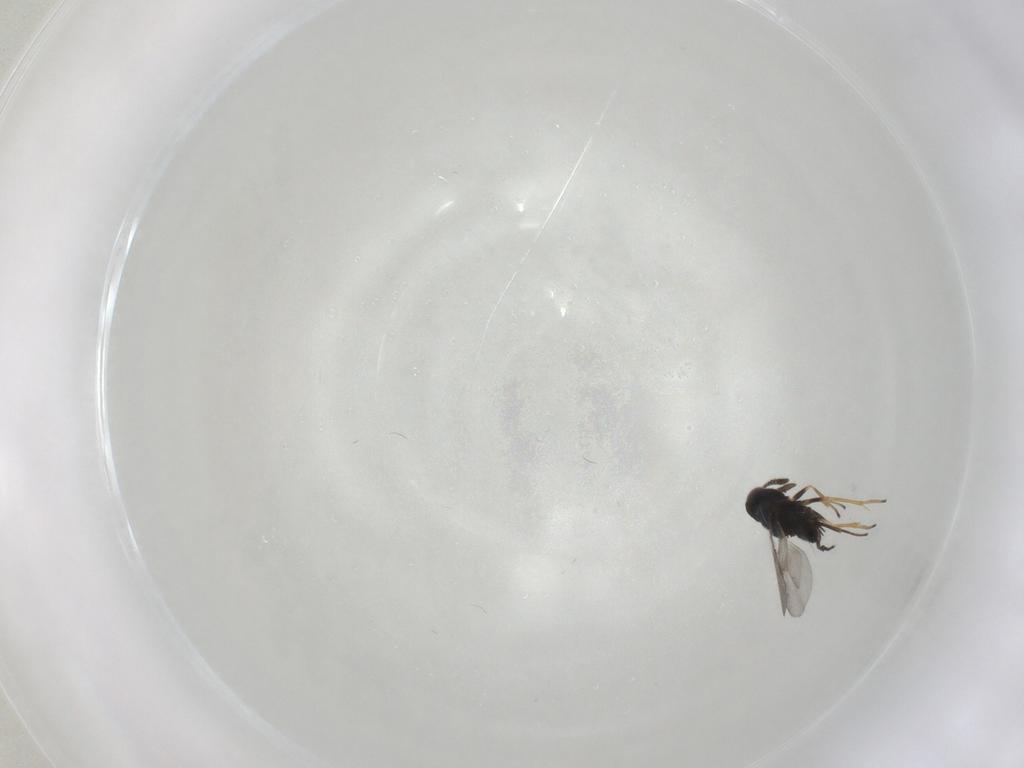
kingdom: Animalia
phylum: Arthropoda
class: Insecta
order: Hymenoptera
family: Encyrtidae
